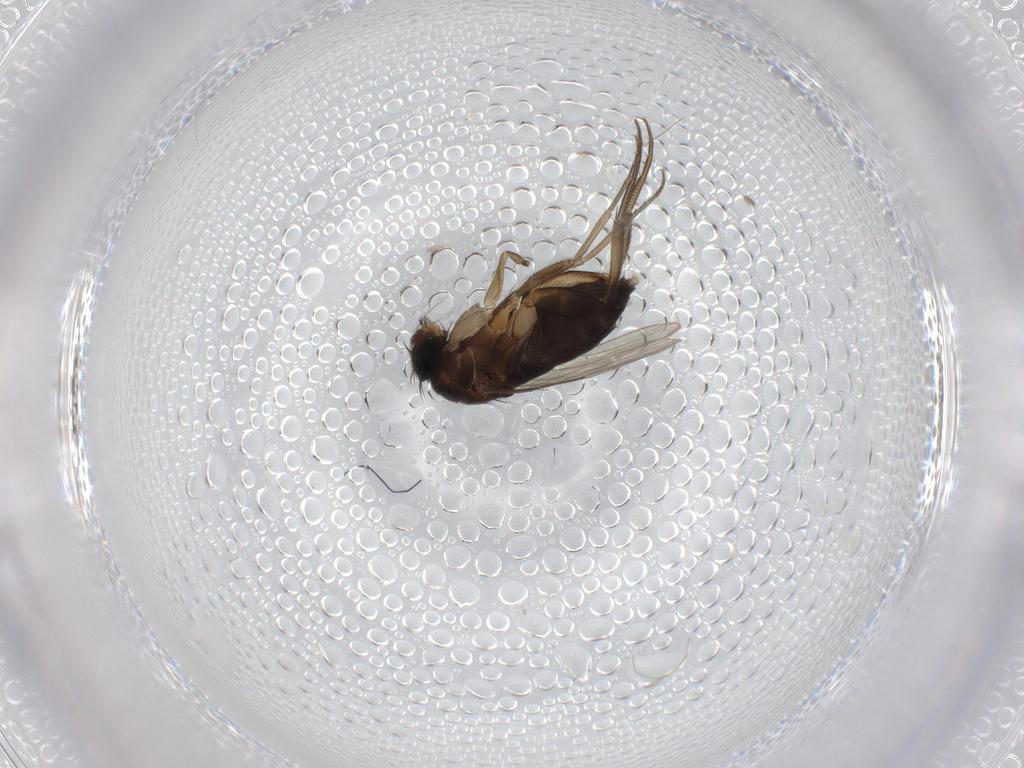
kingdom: Animalia
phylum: Arthropoda
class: Insecta
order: Diptera
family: Phoridae
